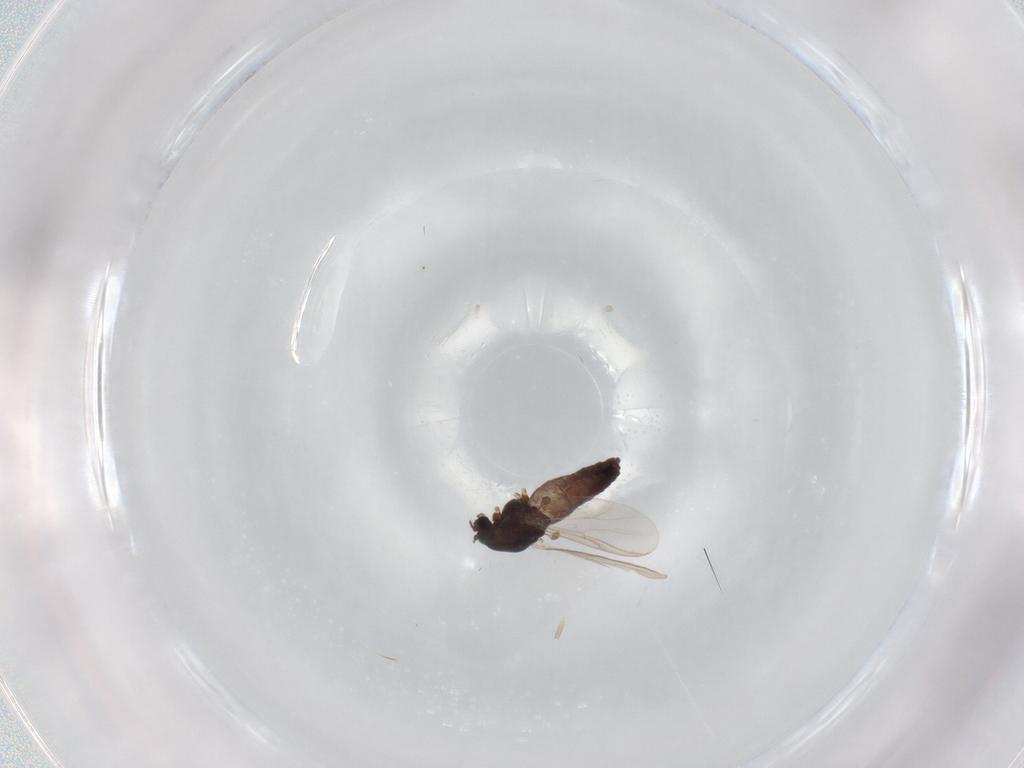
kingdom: Animalia
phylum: Arthropoda
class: Insecta
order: Diptera
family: Chironomidae
